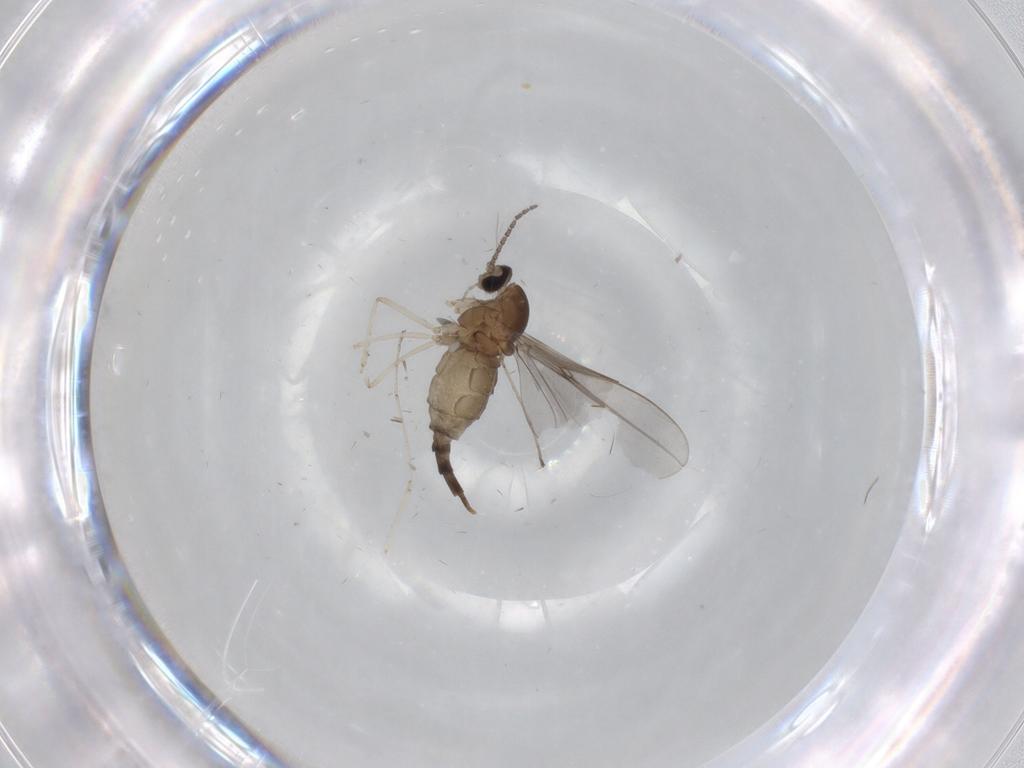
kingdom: Animalia
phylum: Arthropoda
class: Insecta
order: Diptera
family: Cecidomyiidae
